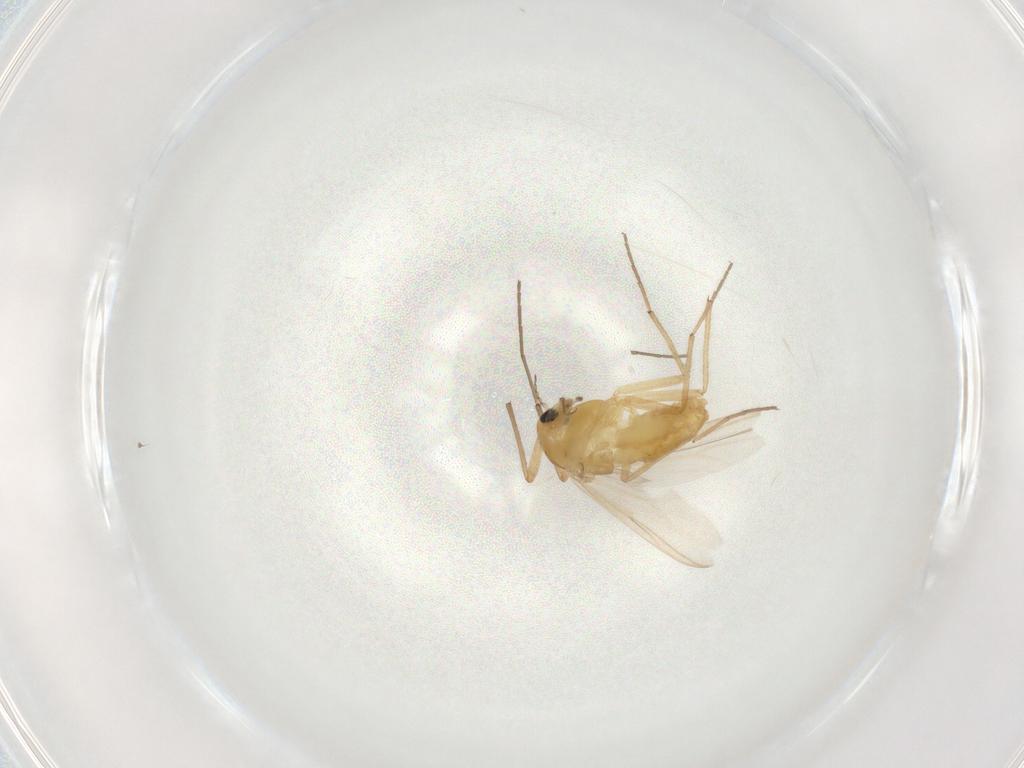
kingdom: Animalia
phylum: Arthropoda
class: Insecta
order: Diptera
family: Chironomidae
